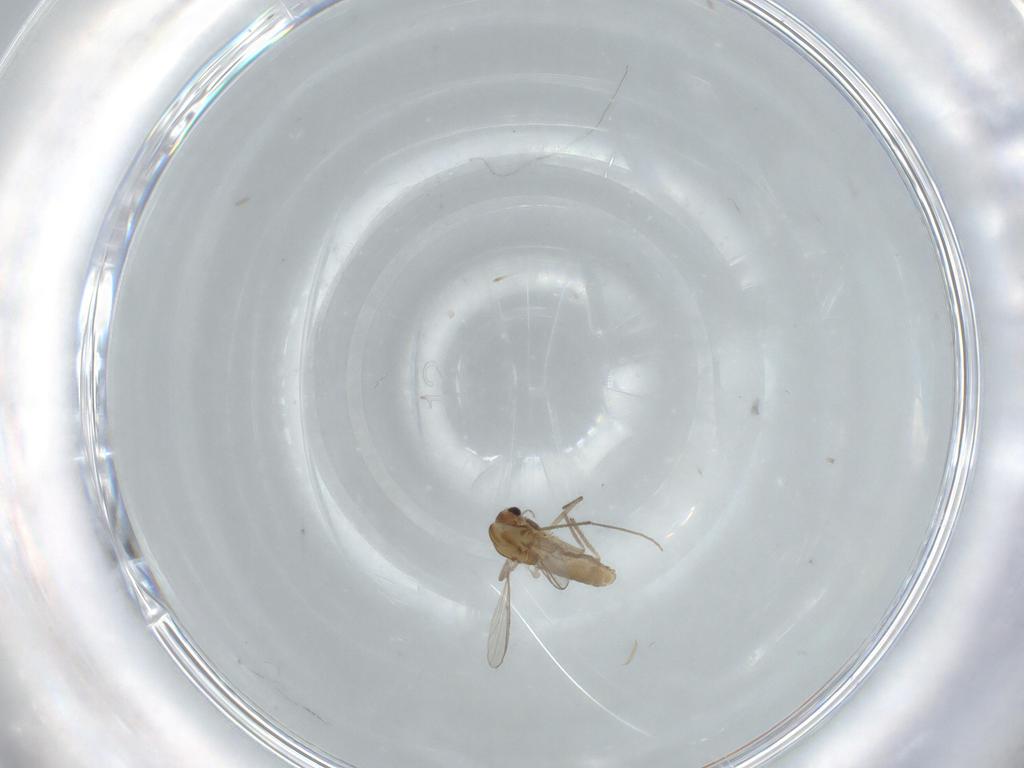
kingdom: Animalia
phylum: Arthropoda
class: Insecta
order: Diptera
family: Chironomidae
